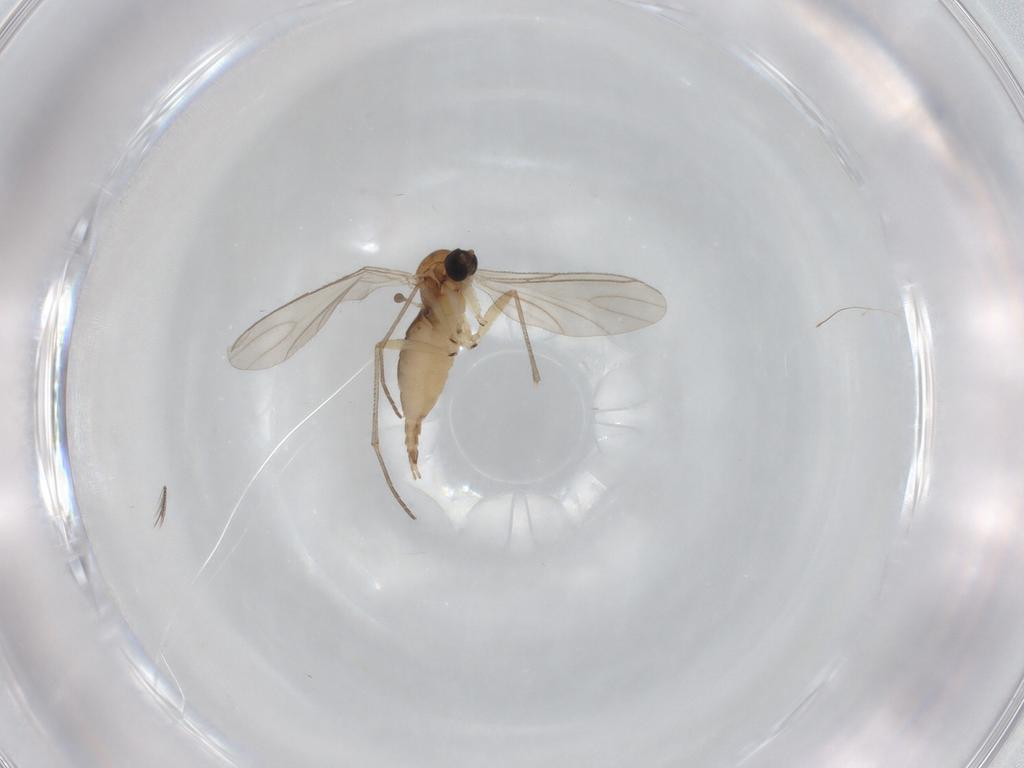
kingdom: Animalia
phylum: Arthropoda
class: Insecta
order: Diptera
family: Sciaridae
